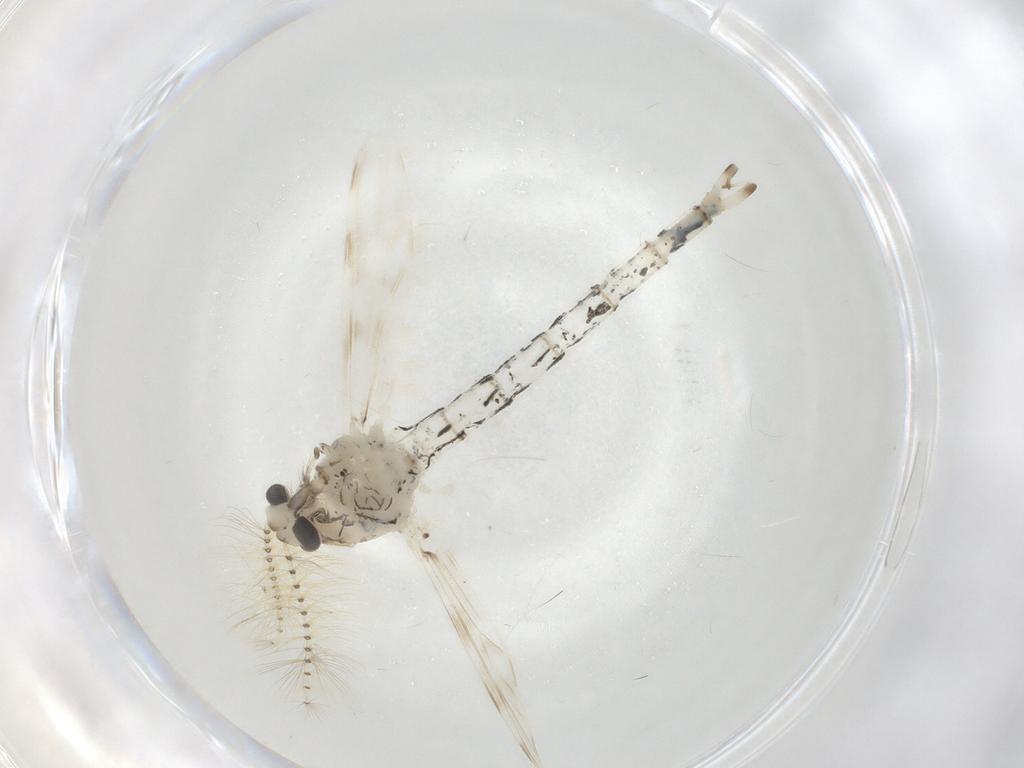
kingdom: Animalia
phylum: Arthropoda
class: Insecta
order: Diptera
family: Chaoboridae
